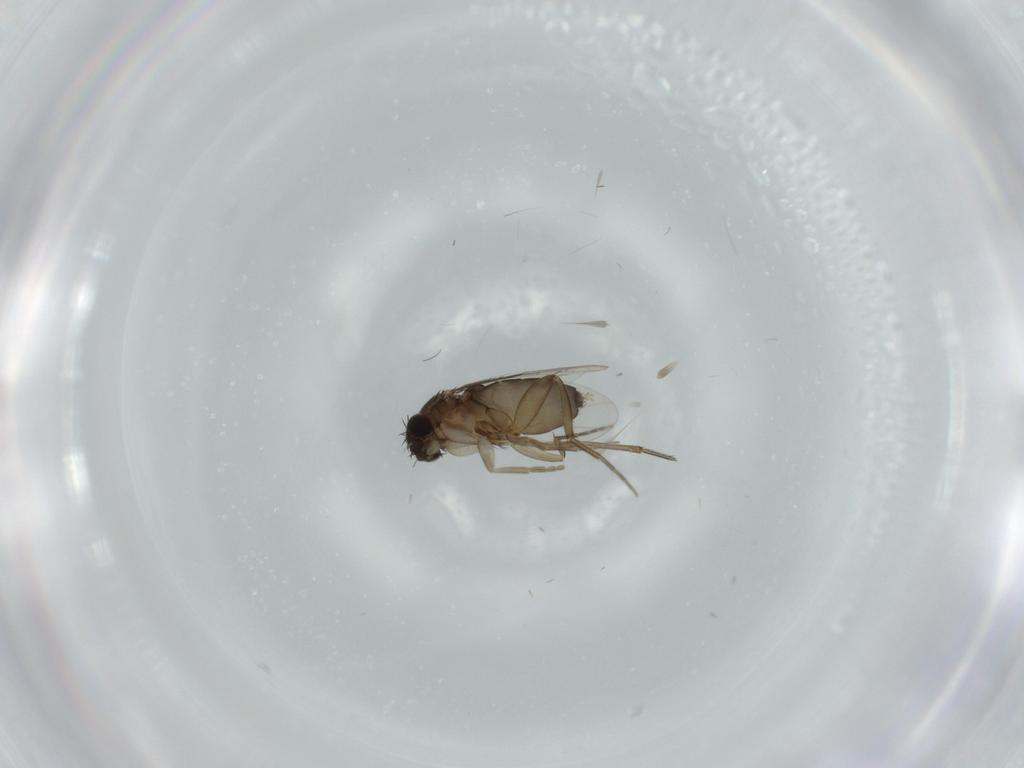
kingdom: Animalia
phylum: Arthropoda
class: Insecta
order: Diptera
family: Phoridae
